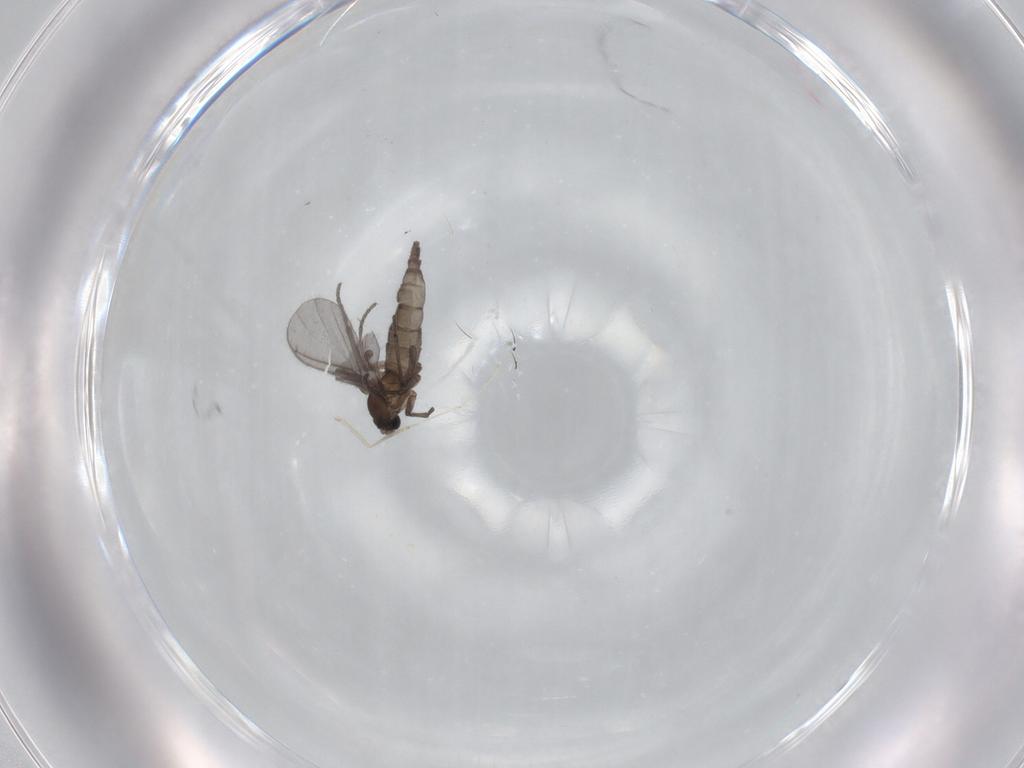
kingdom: Animalia
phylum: Arthropoda
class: Insecta
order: Diptera
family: Sciaridae
